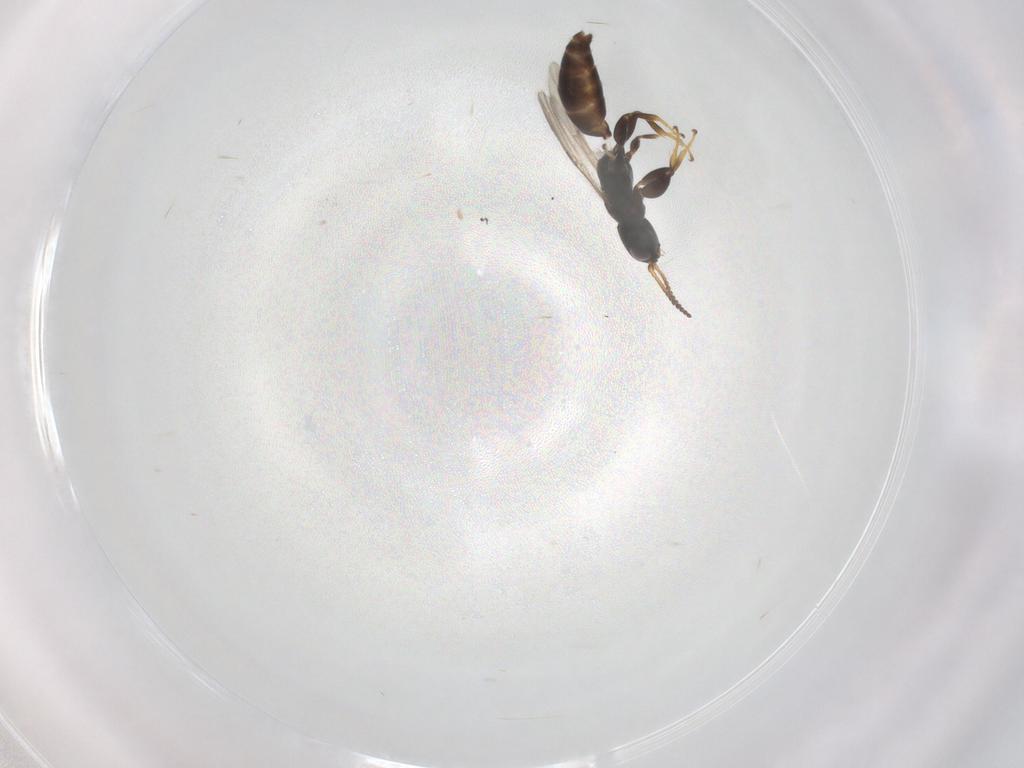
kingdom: Animalia
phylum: Arthropoda
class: Insecta
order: Hymenoptera
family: Bethylidae
